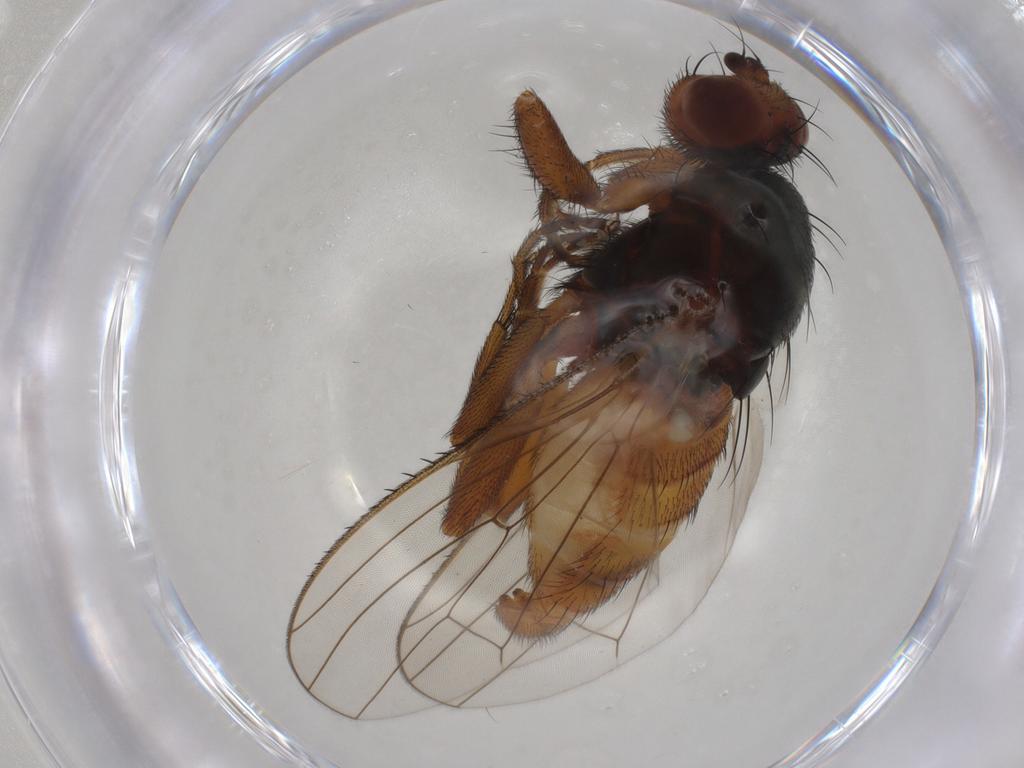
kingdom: Animalia
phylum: Arthropoda
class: Insecta
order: Diptera
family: Heleomyzidae
